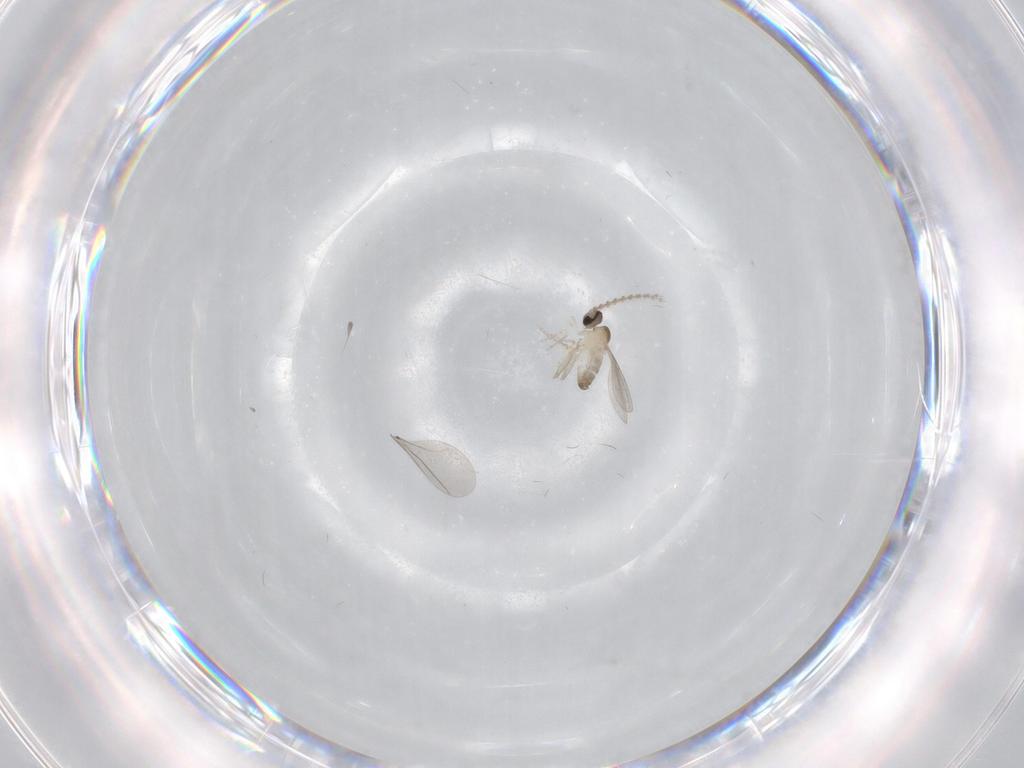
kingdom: Animalia
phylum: Arthropoda
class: Insecta
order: Diptera
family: Cecidomyiidae
